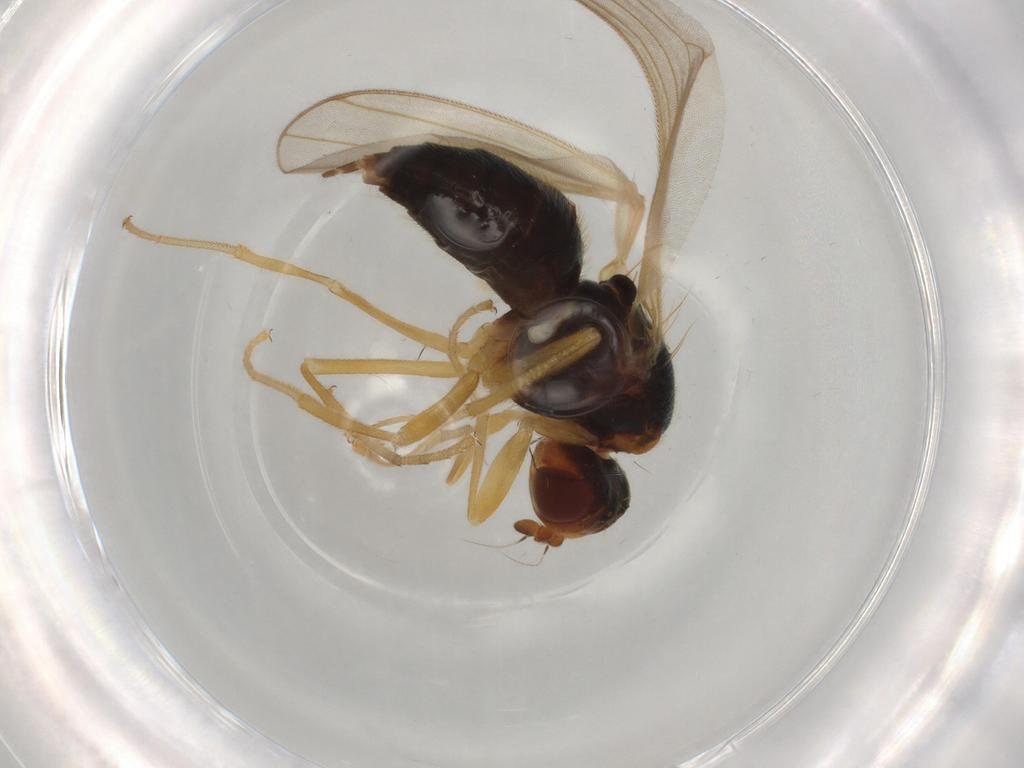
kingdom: Animalia
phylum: Arthropoda
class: Insecta
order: Diptera
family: Psilidae
